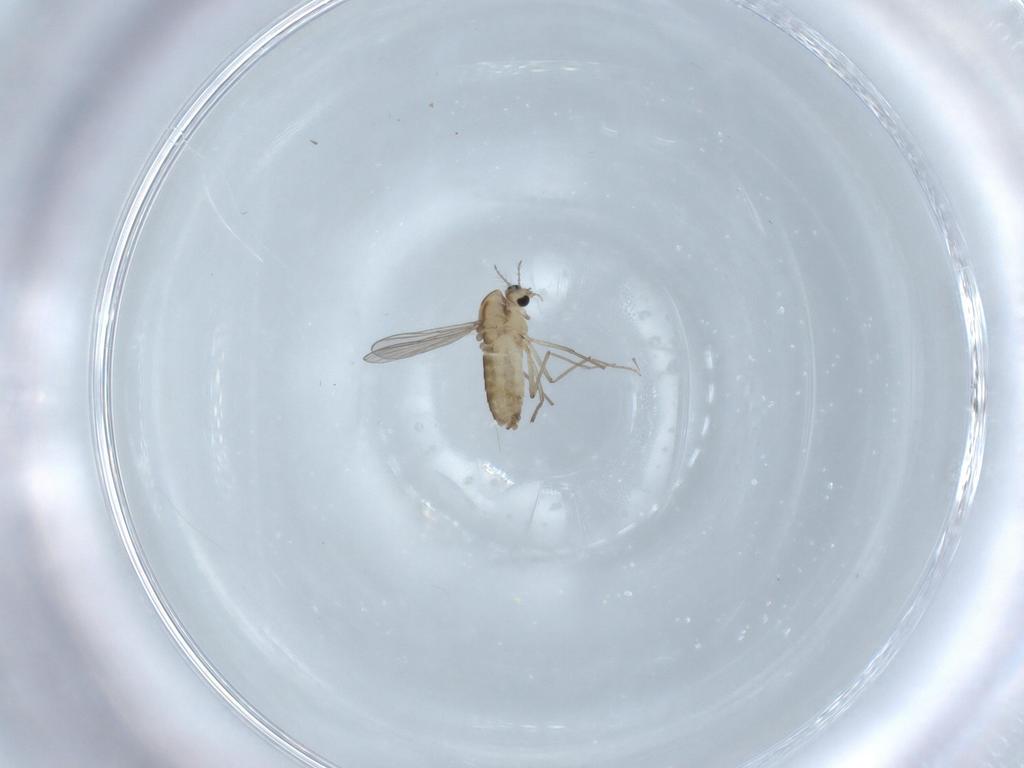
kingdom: Animalia
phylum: Arthropoda
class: Insecta
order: Diptera
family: Chironomidae
